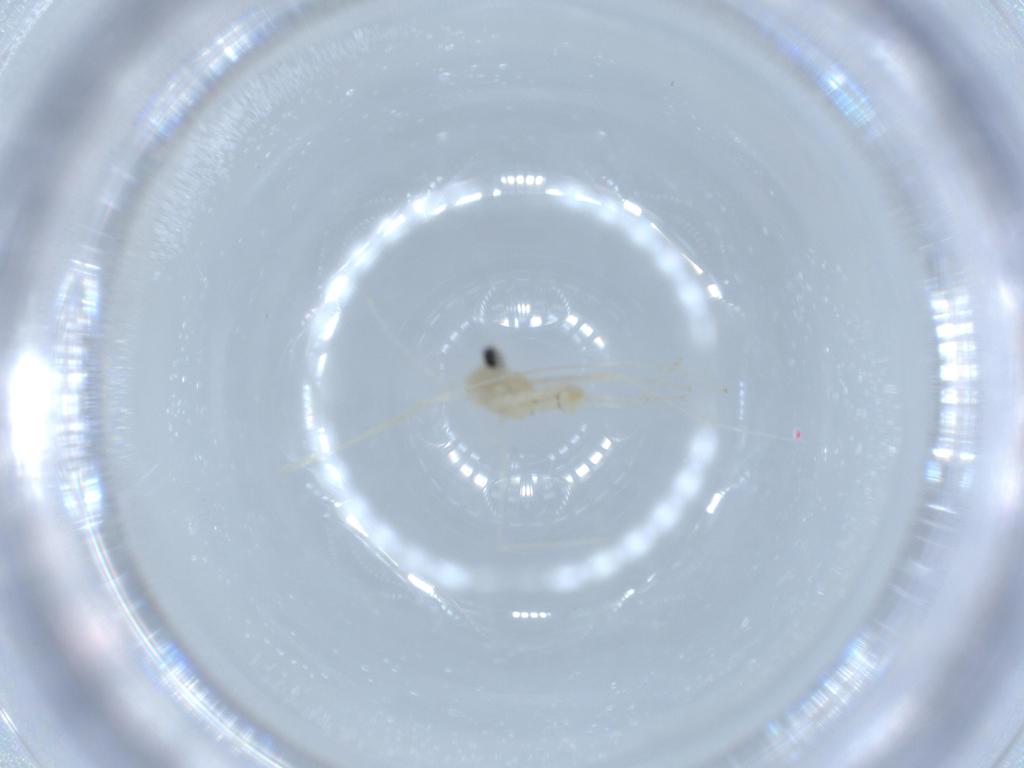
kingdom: Animalia
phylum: Arthropoda
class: Insecta
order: Diptera
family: Cecidomyiidae
